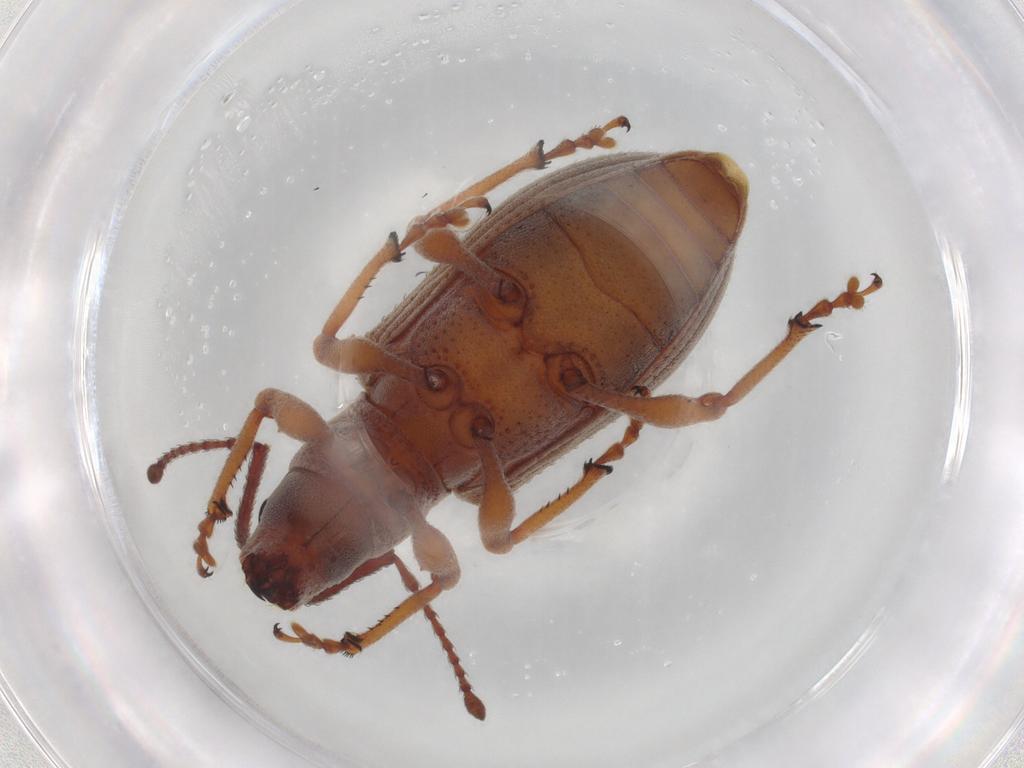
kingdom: Animalia
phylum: Arthropoda
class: Insecta
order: Coleoptera
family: Curculionidae
